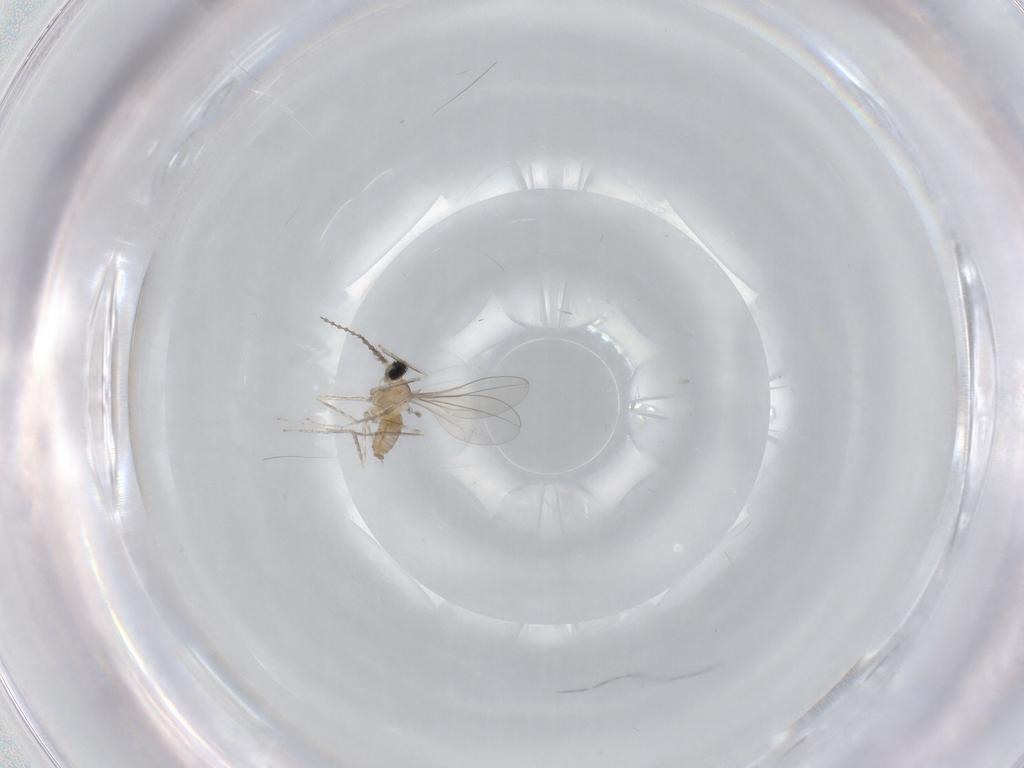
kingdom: Animalia
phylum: Arthropoda
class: Insecta
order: Diptera
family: Cecidomyiidae
